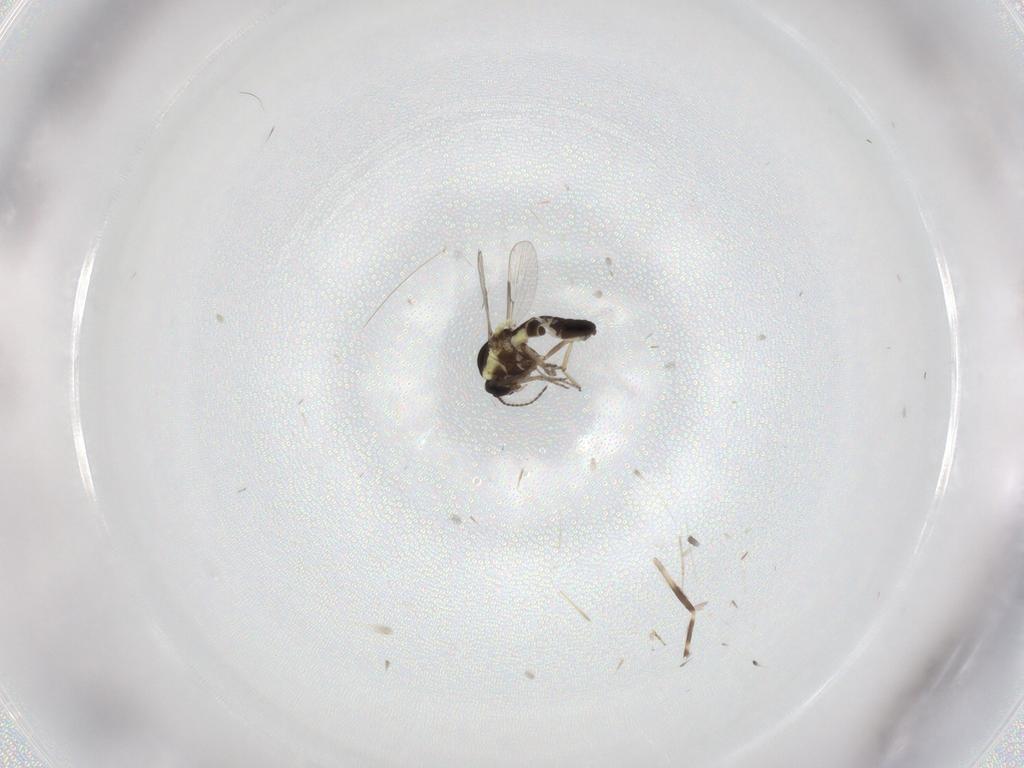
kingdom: Animalia
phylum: Arthropoda
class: Insecta
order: Diptera
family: Ceratopogonidae
